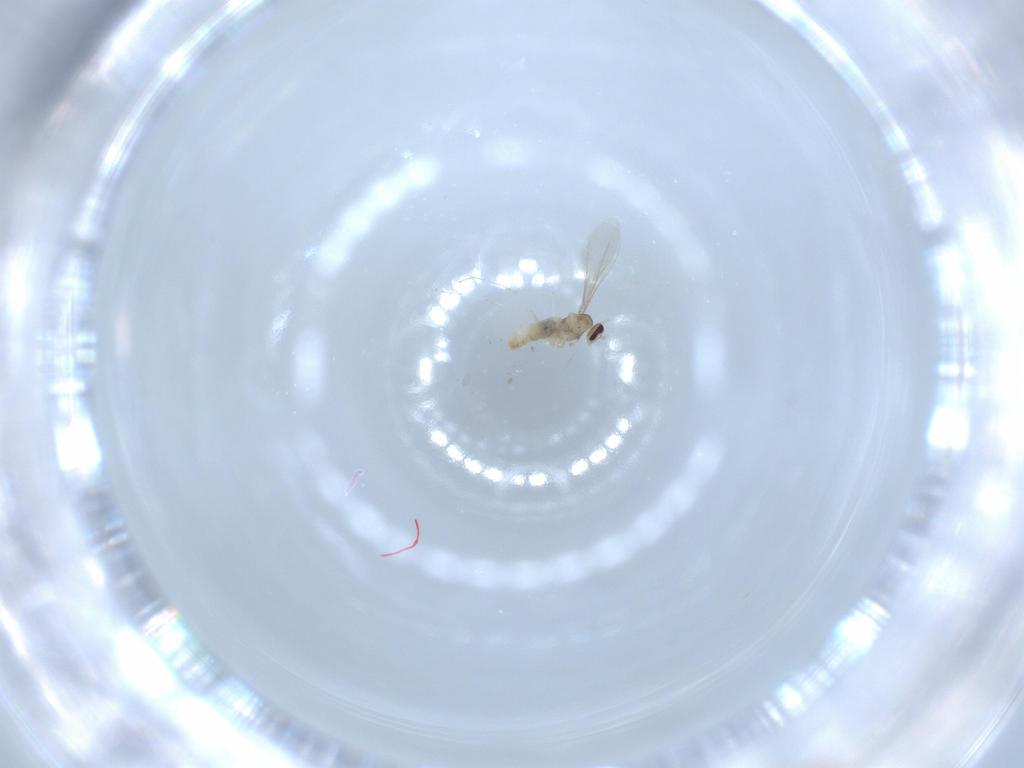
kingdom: Animalia
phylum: Arthropoda
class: Insecta
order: Diptera
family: Cecidomyiidae
